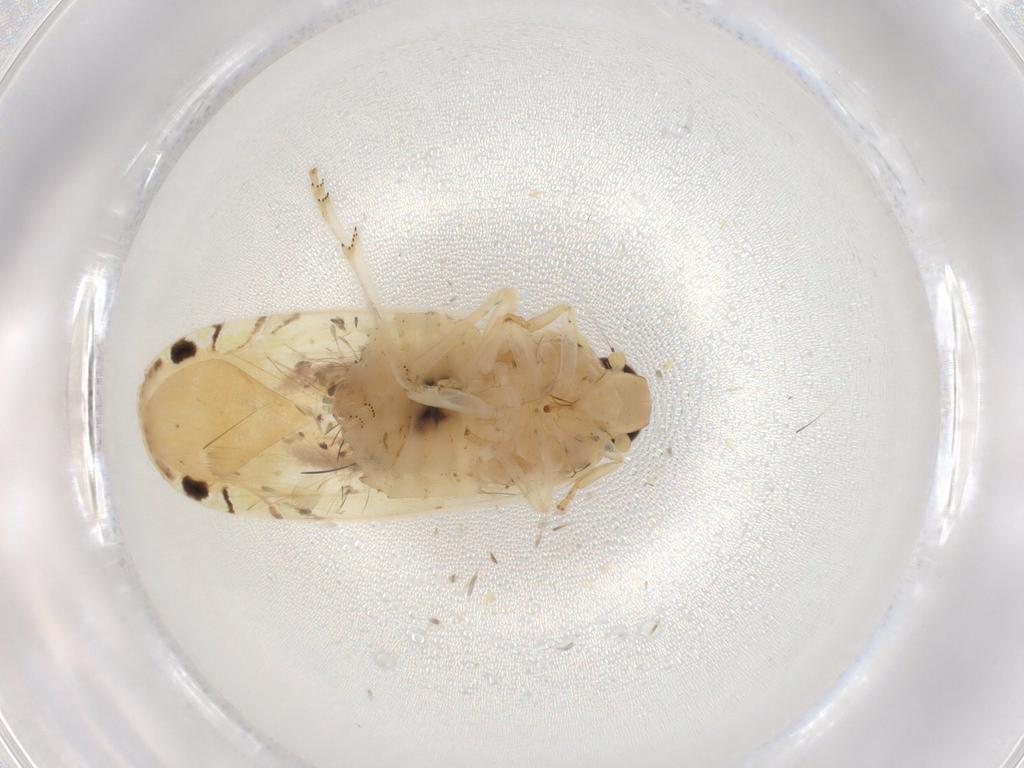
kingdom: Animalia
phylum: Arthropoda
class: Insecta
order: Hemiptera
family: Achilidae
